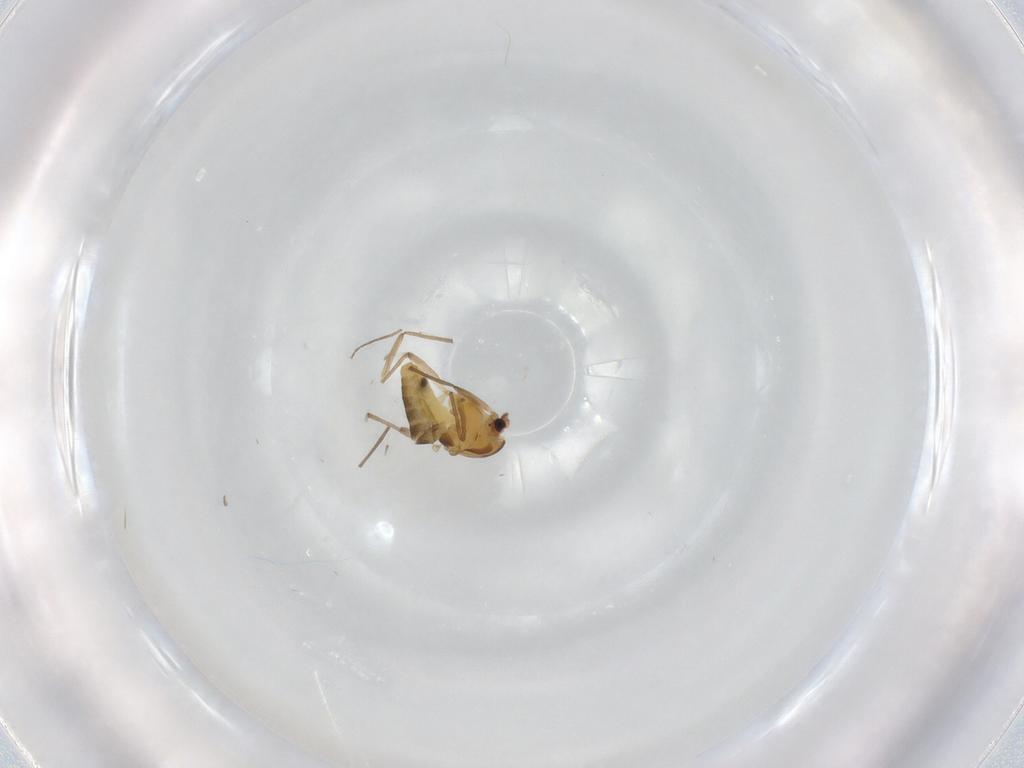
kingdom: Animalia
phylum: Arthropoda
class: Insecta
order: Diptera
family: Chironomidae
